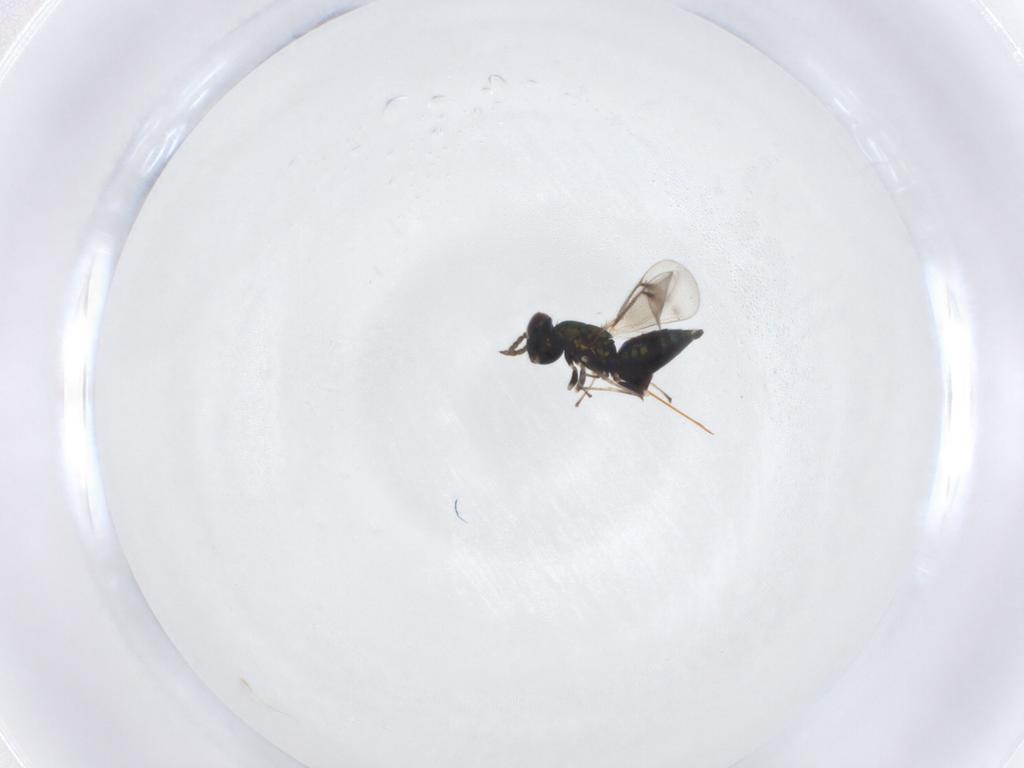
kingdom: Animalia
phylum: Arthropoda
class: Insecta
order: Hymenoptera
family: Eulophidae
